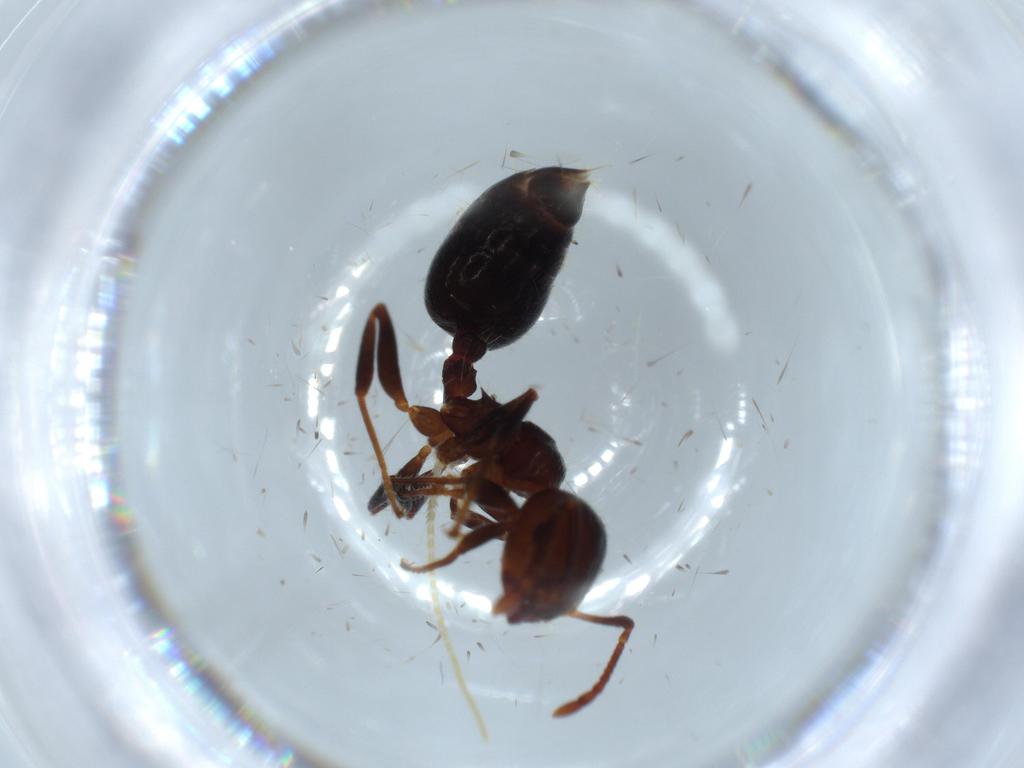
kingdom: Animalia
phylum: Arthropoda
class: Insecta
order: Hymenoptera
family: Formicidae
